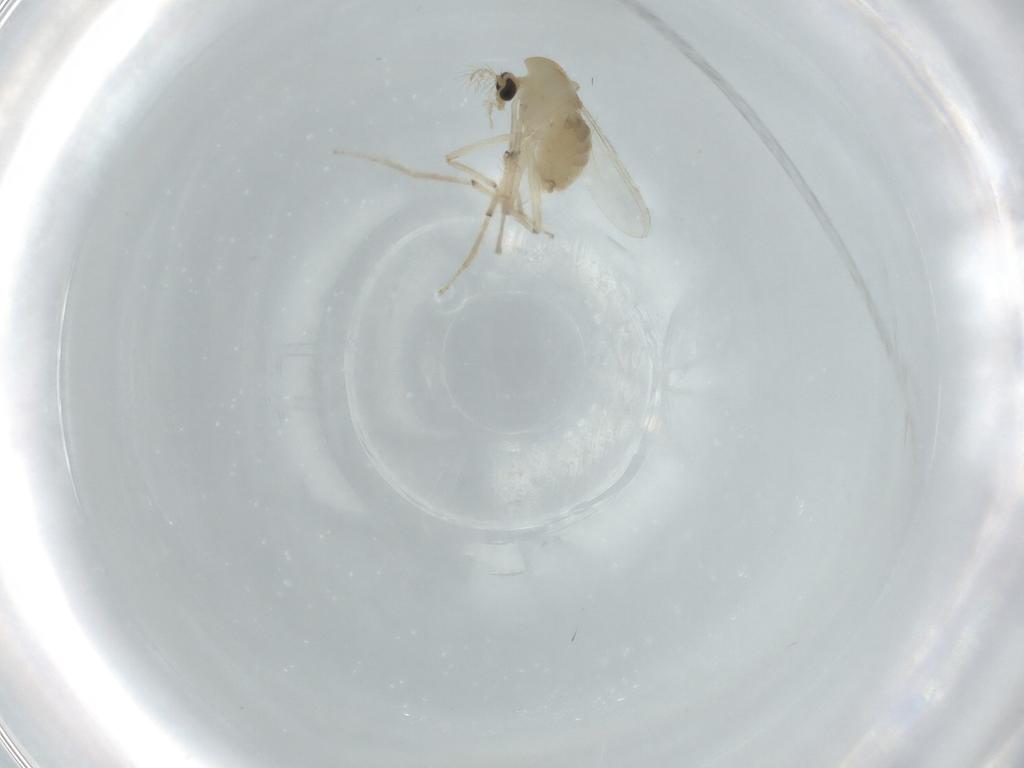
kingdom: Animalia
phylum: Arthropoda
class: Insecta
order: Diptera
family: Chironomidae
